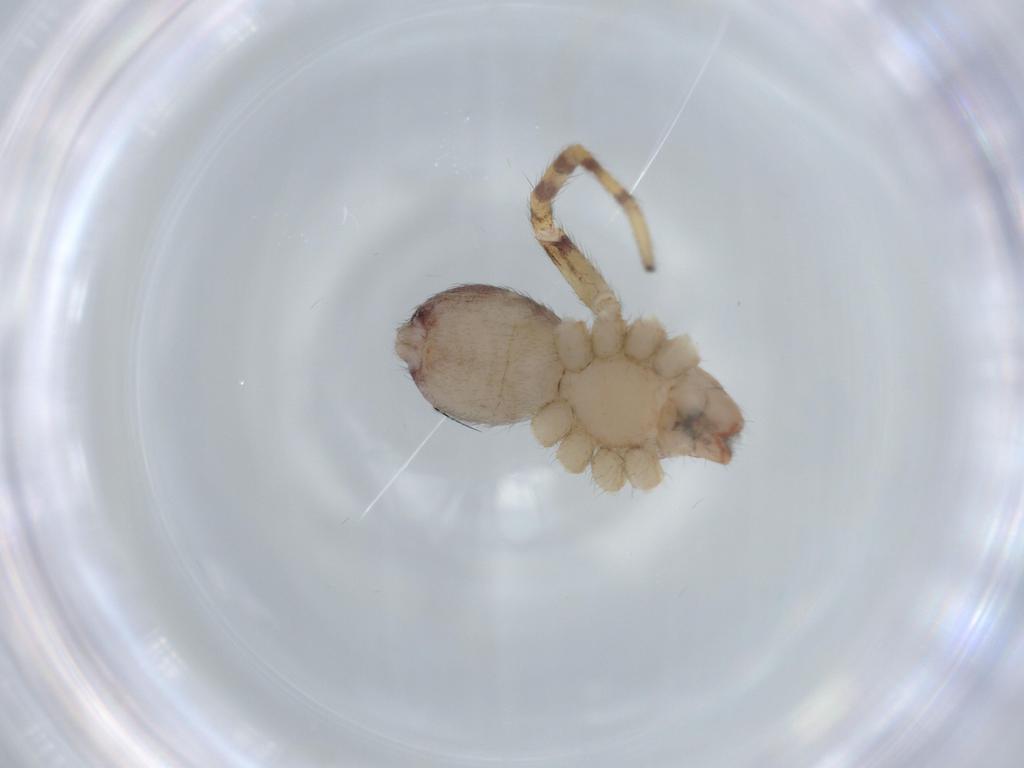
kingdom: Animalia
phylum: Arthropoda
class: Arachnida
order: Araneae
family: Corinnidae
